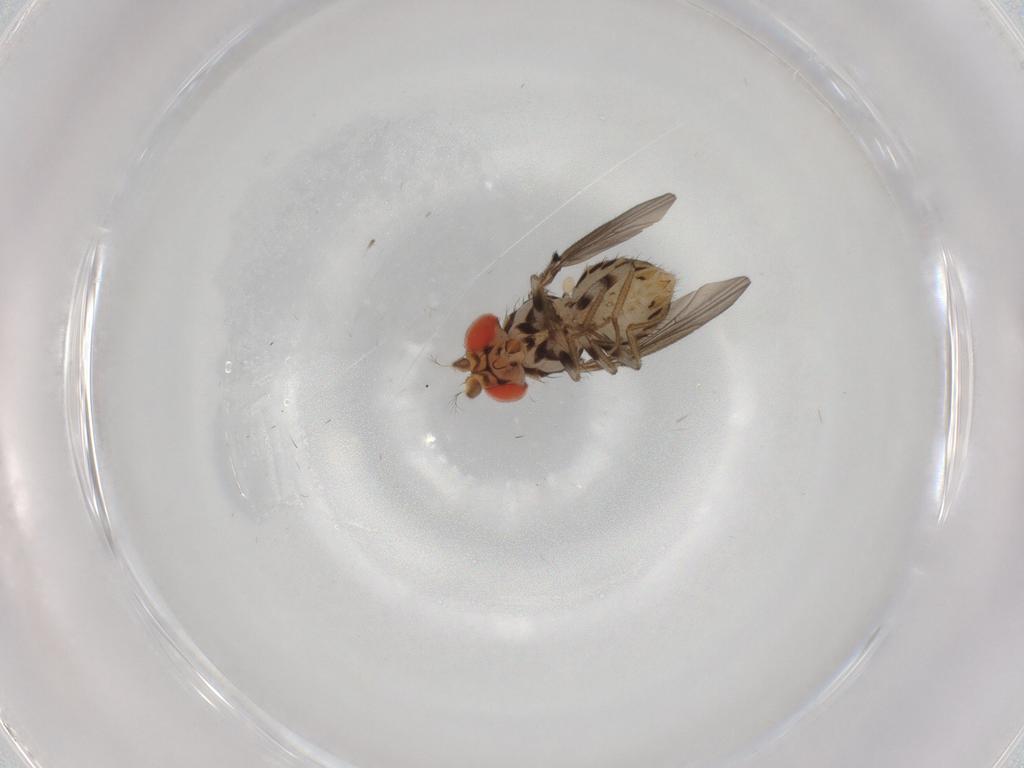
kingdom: Animalia
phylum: Arthropoda
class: Insecta
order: Diptera
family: Drosophilidae
